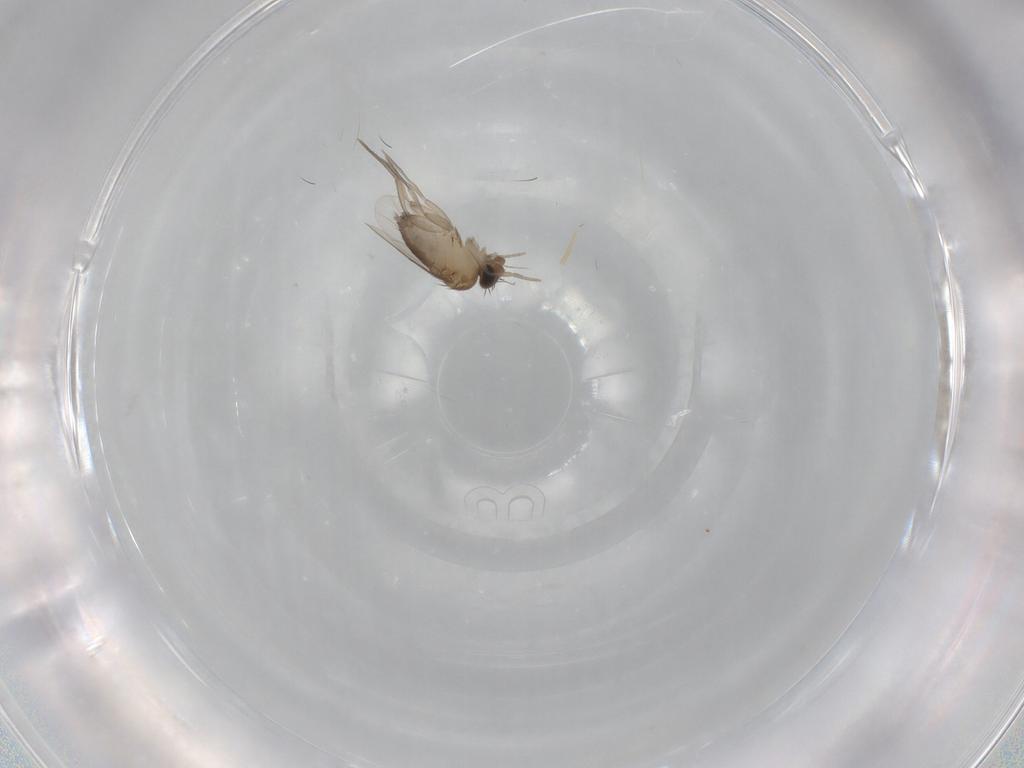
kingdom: Animalia
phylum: Arthropoda
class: Insecta
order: Diptera
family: Phoridae
